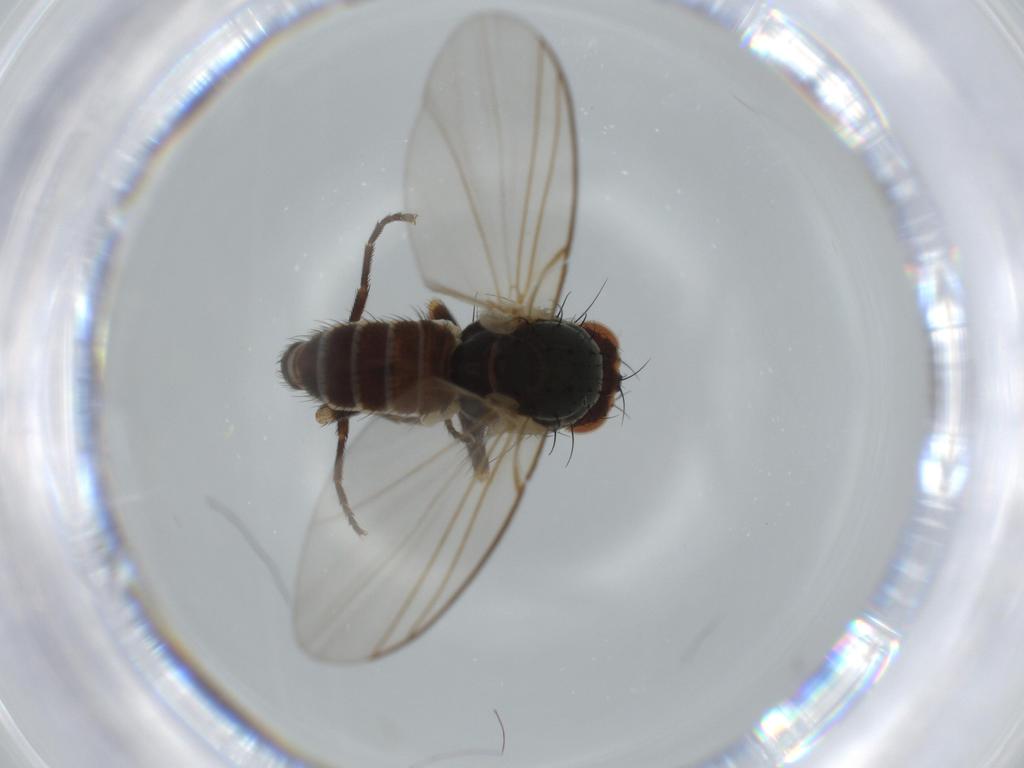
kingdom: Animalia
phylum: Arthropoda
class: Insecta
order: Diptera
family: Agromyzidae
